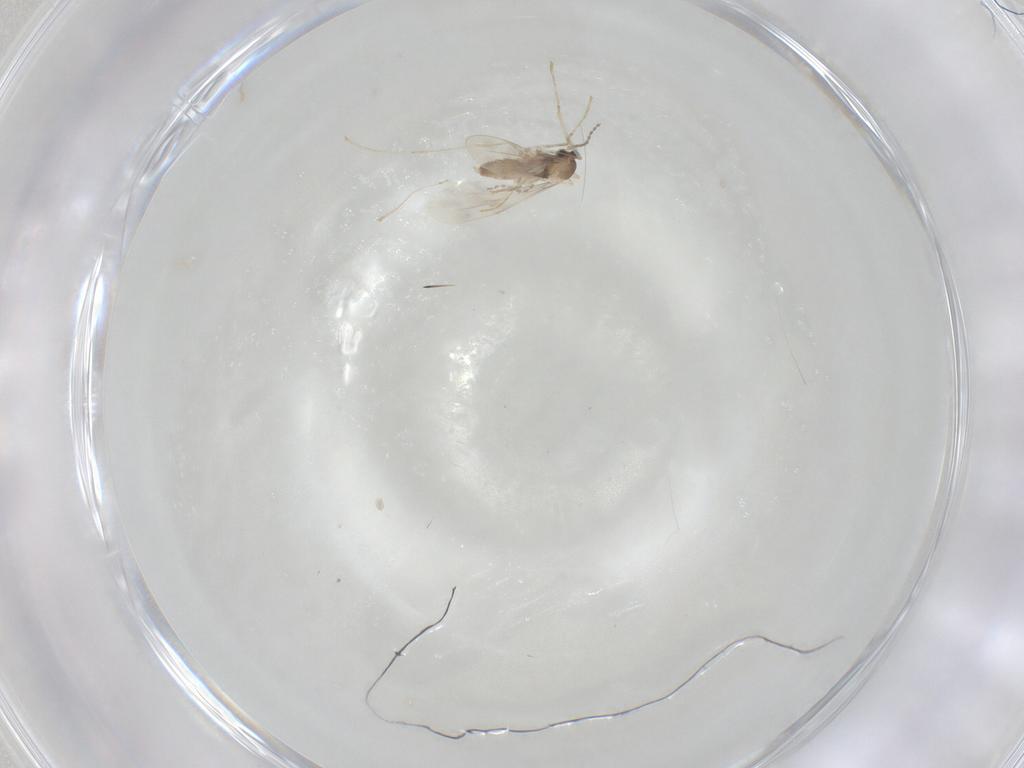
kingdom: Animalia
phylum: Arthropoda
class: Insecta
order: Diptera
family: Cecidomyiidae
